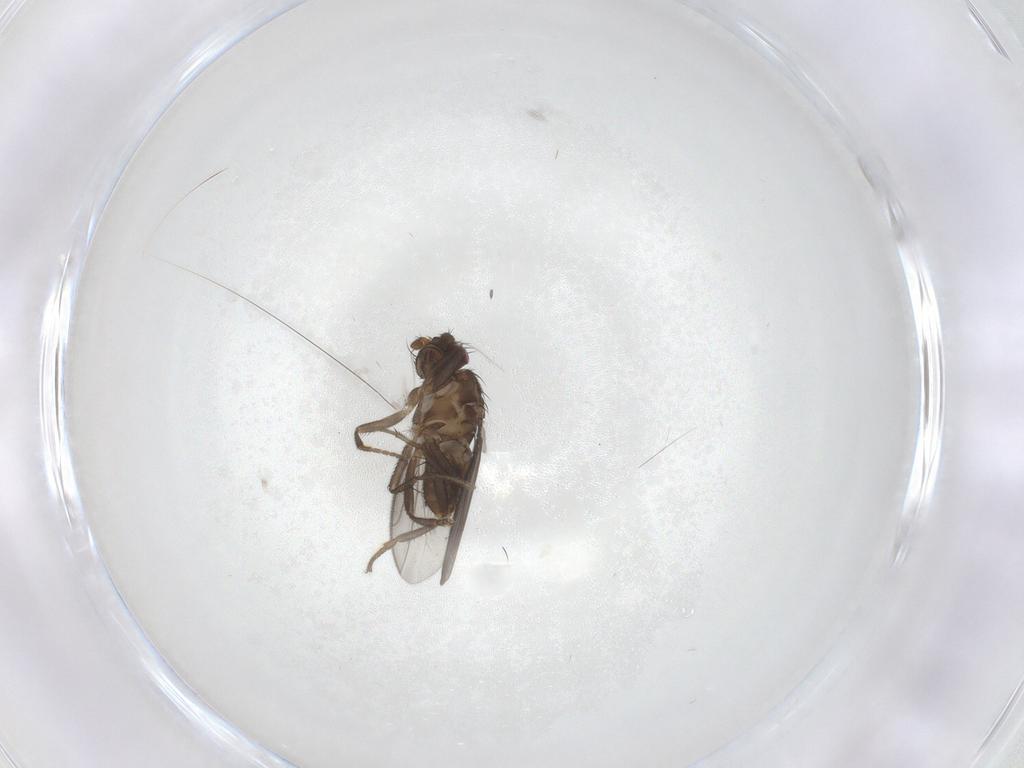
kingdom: Animalia
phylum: Arthropoda
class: Insecta
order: Diptera
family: Sphaeroceridae
